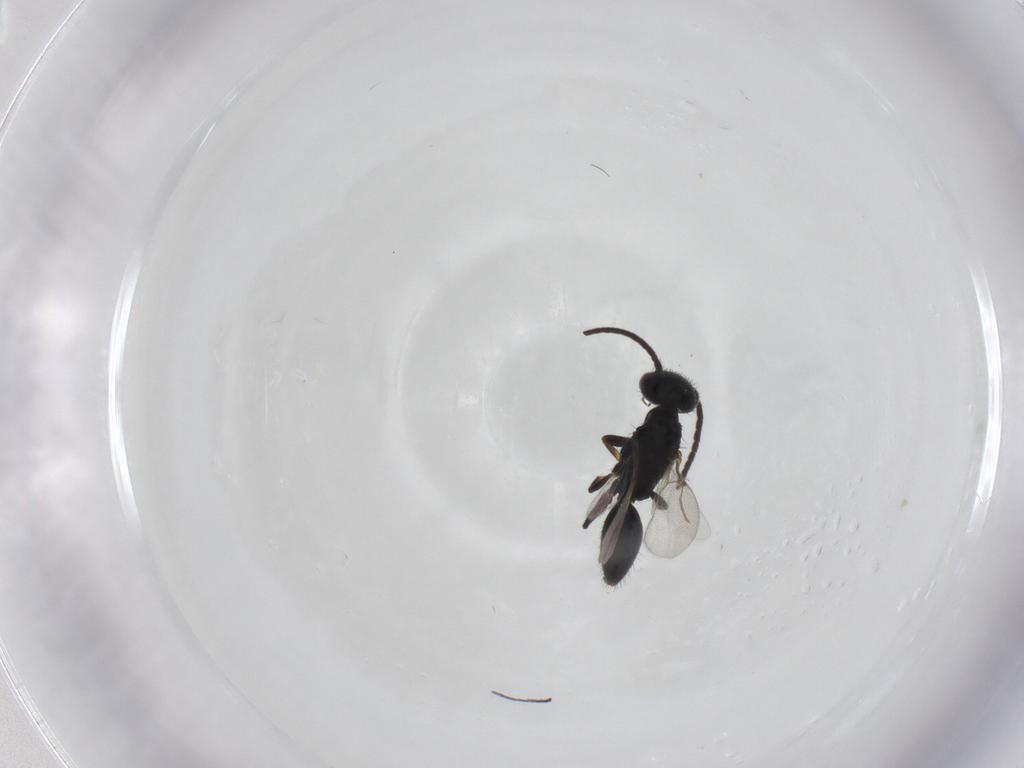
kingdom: Animalia
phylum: Arthropoda
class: Insecta
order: Hymenoptera
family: Bethylidae
